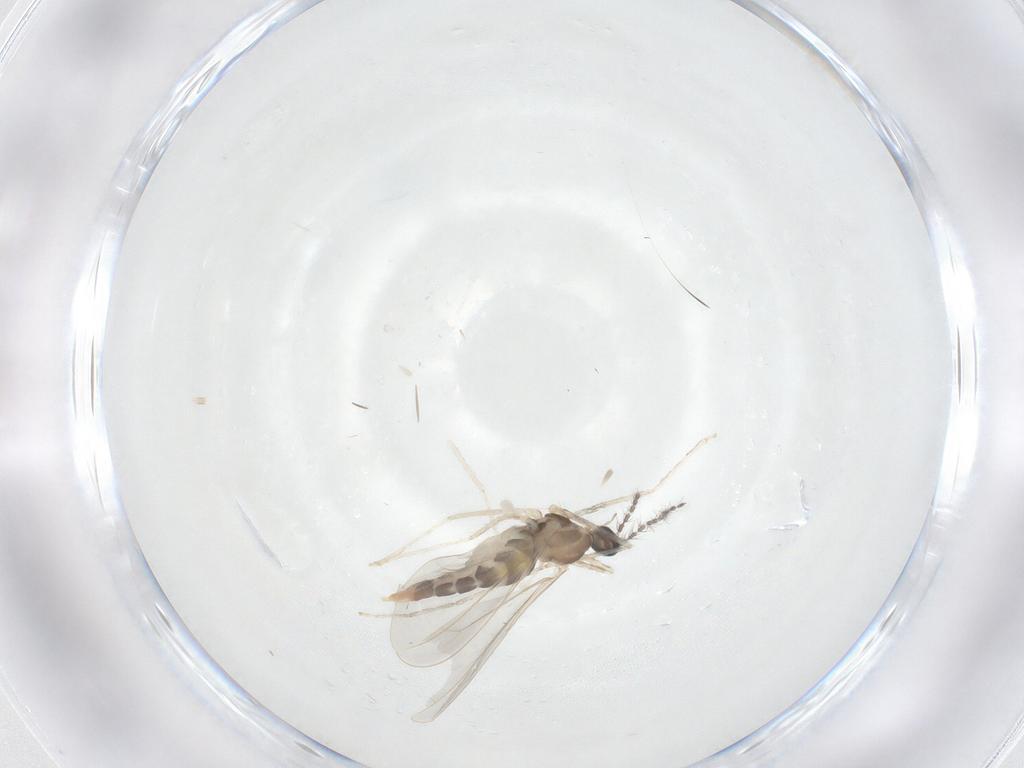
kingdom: Animalia
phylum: Arthropoda
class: Insecta
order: Diptera
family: Cecidomyiidae
